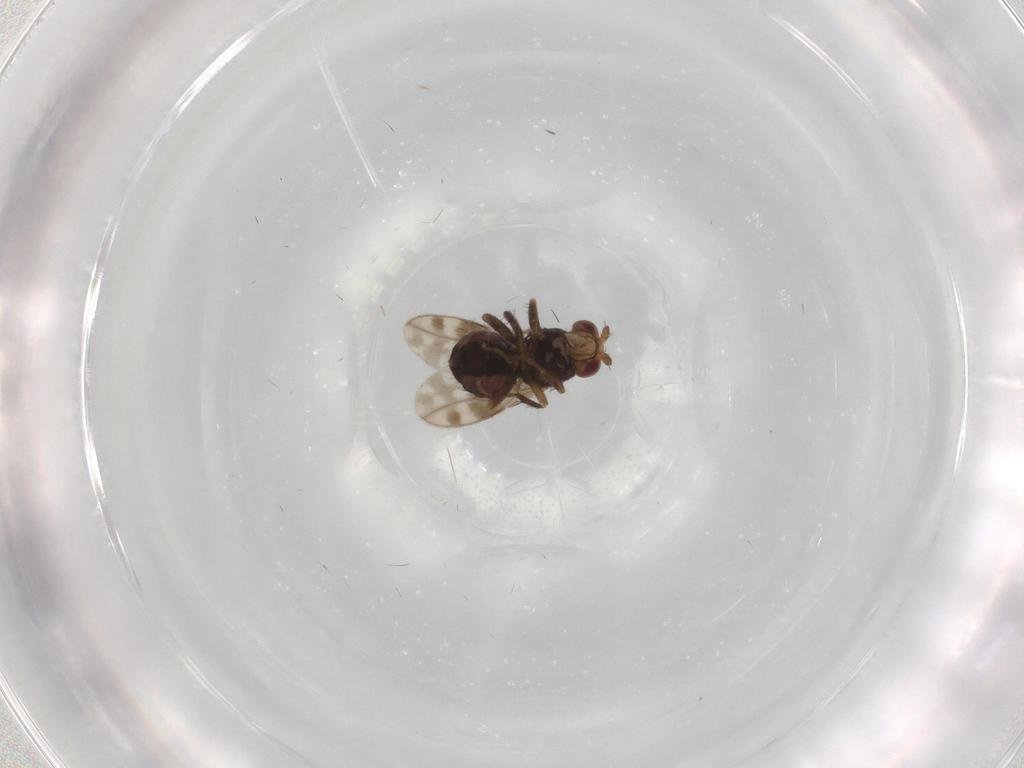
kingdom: Animalia
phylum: Arthropoda
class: Insecta
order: Diptera
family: Sphaeroceridae
